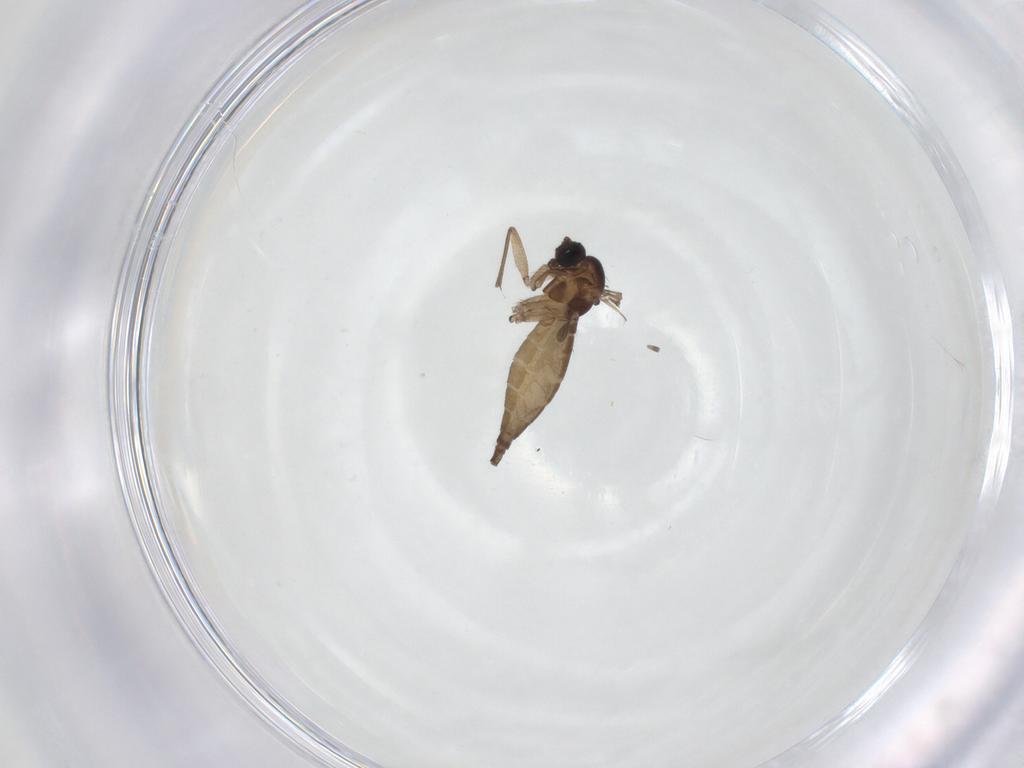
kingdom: Animalia
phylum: Arthropoda
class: Insecta
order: Diptera
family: Sciaridae
